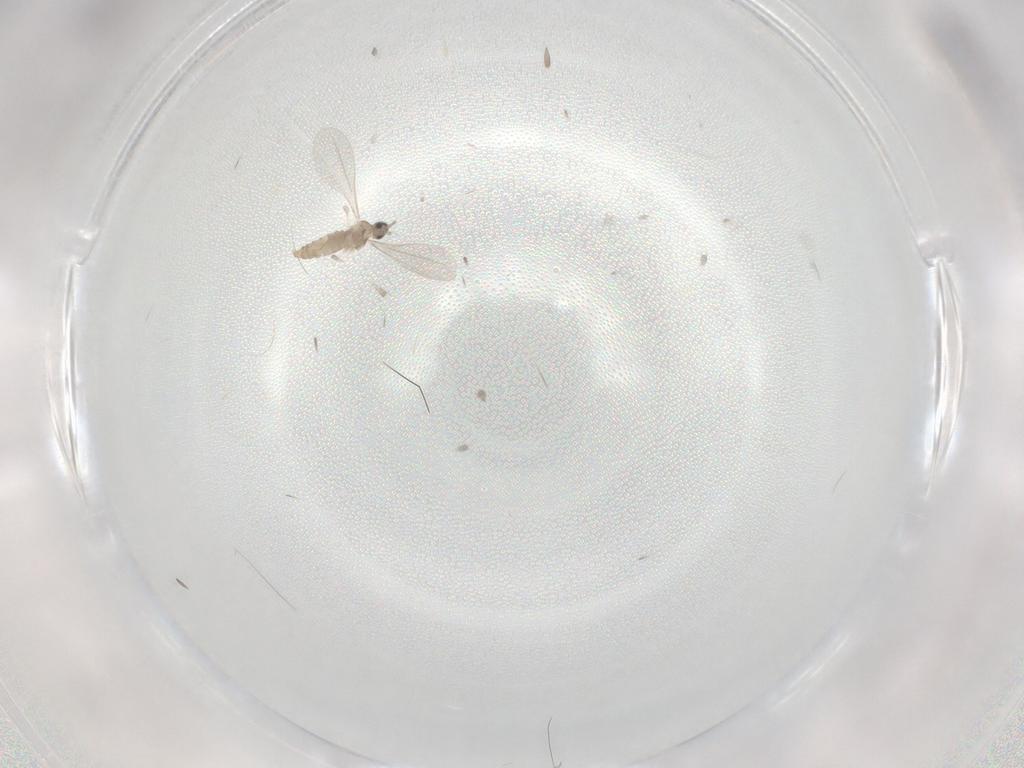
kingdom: Animalia
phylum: Arthropoda
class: Insecta
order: Diptera
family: Cecidomyiidae
